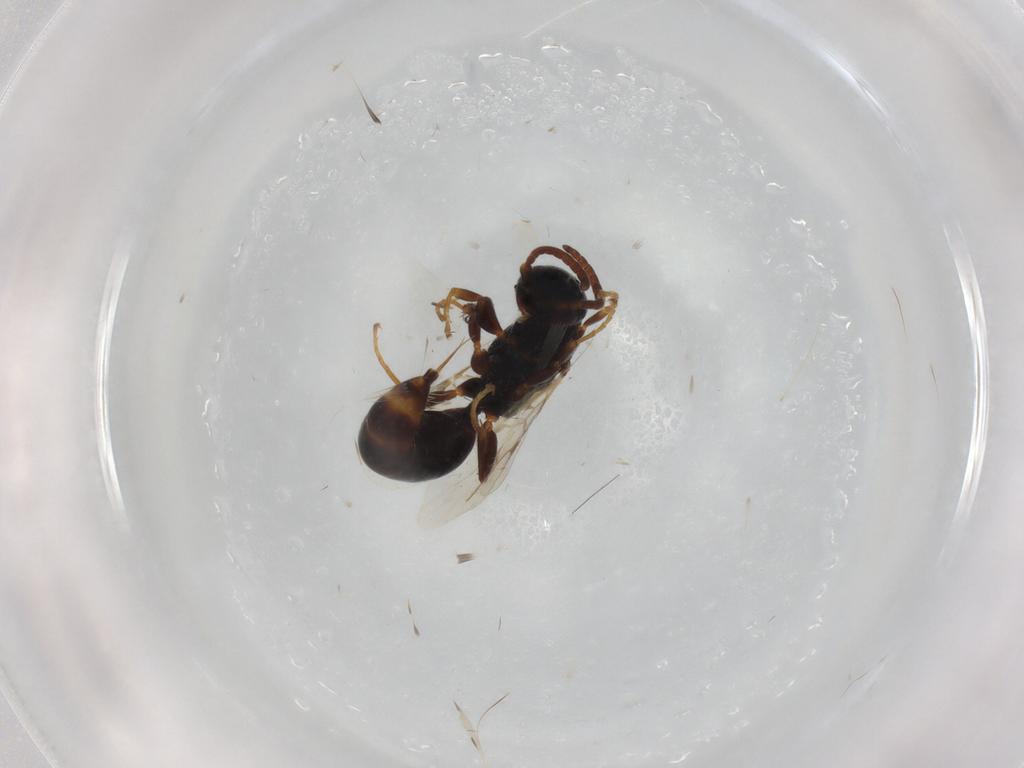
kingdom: Animalia
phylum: Arthropoda
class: Insecta
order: Hymenoptera
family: Bethylidae
